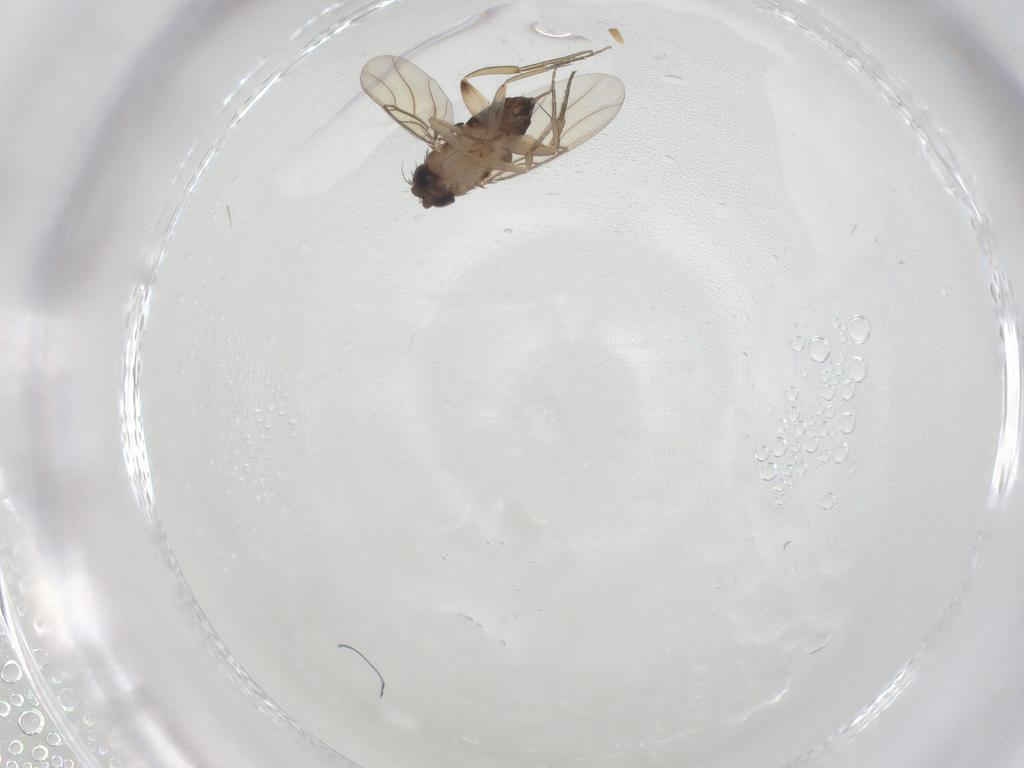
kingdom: Animalia
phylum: Arthropoda
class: Insecta
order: Diptera
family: Phoridae
